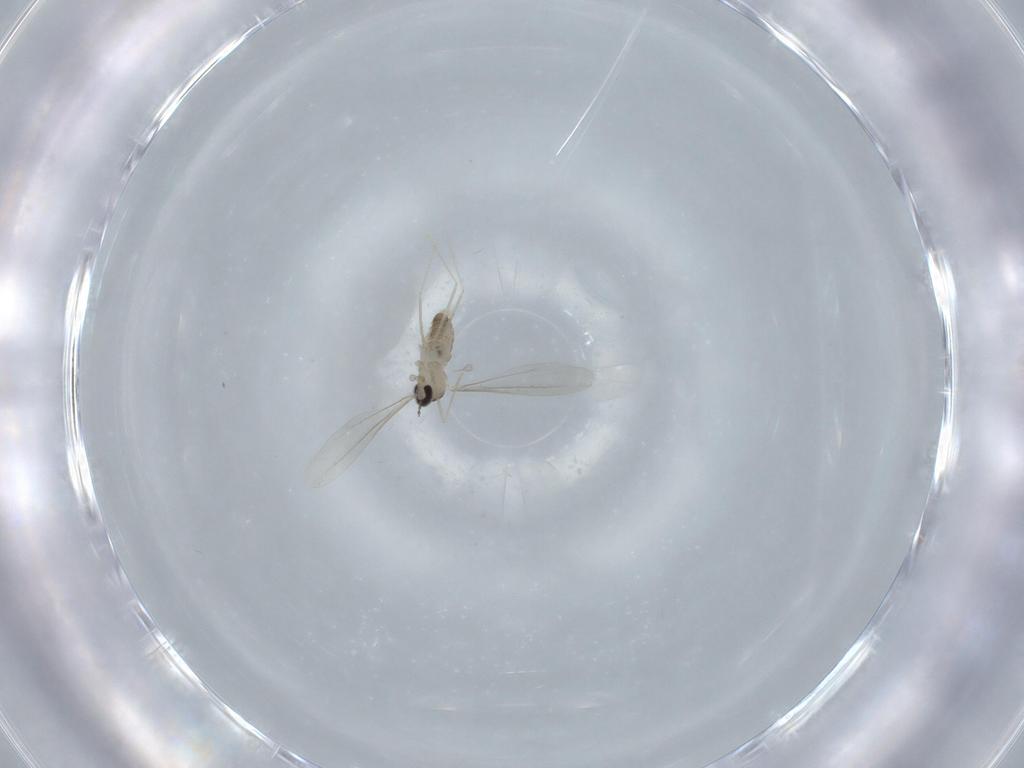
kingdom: Animalia
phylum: Arthropoda
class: Insecta
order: Diptera
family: Cecidomyiidae
